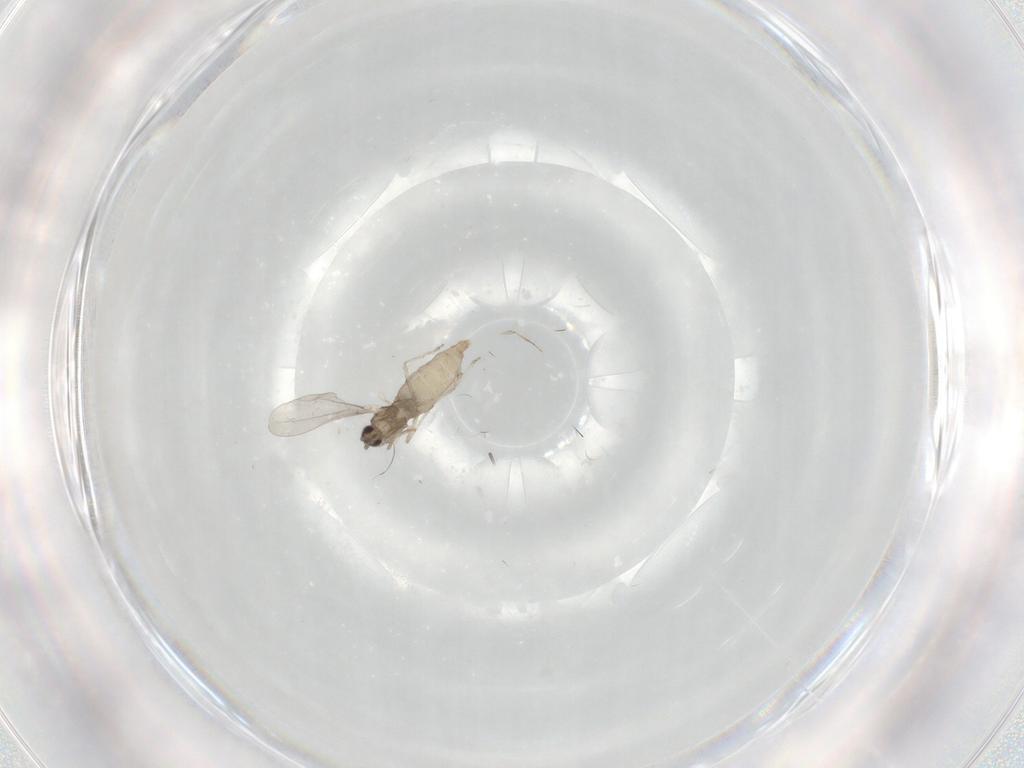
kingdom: Animalia
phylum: Arthropoda
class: Insecta
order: Diptera
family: Cecidomyiidae
